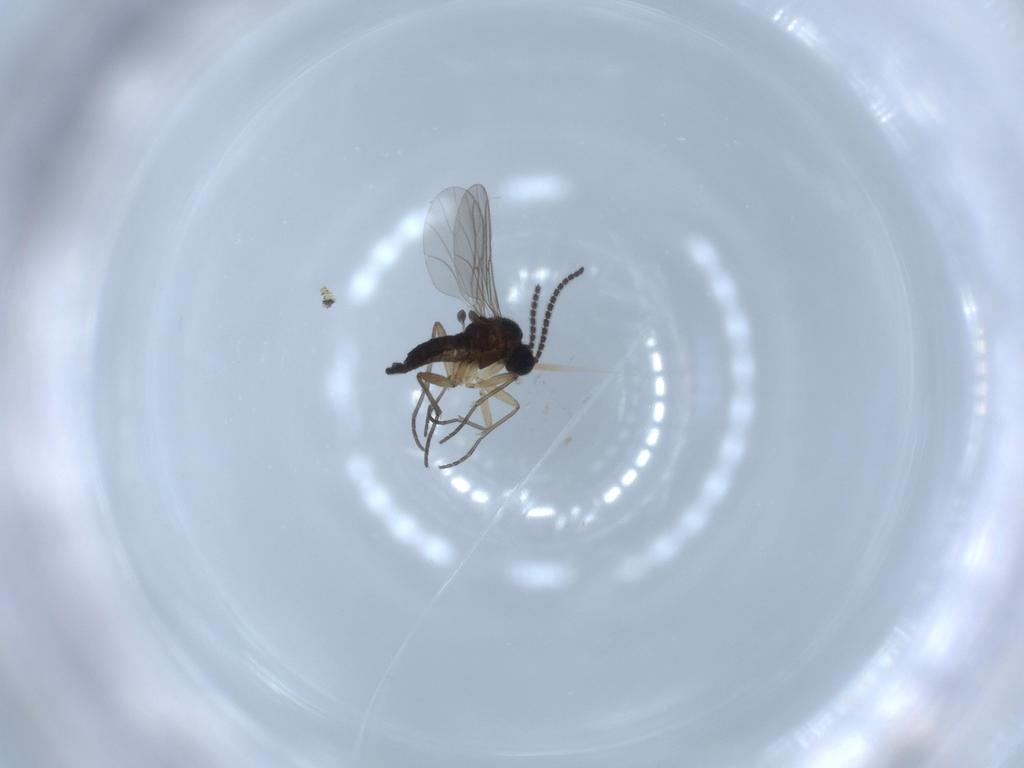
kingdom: Animalia
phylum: Arthropoda
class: Insecta
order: Diptera
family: Sciaridae
